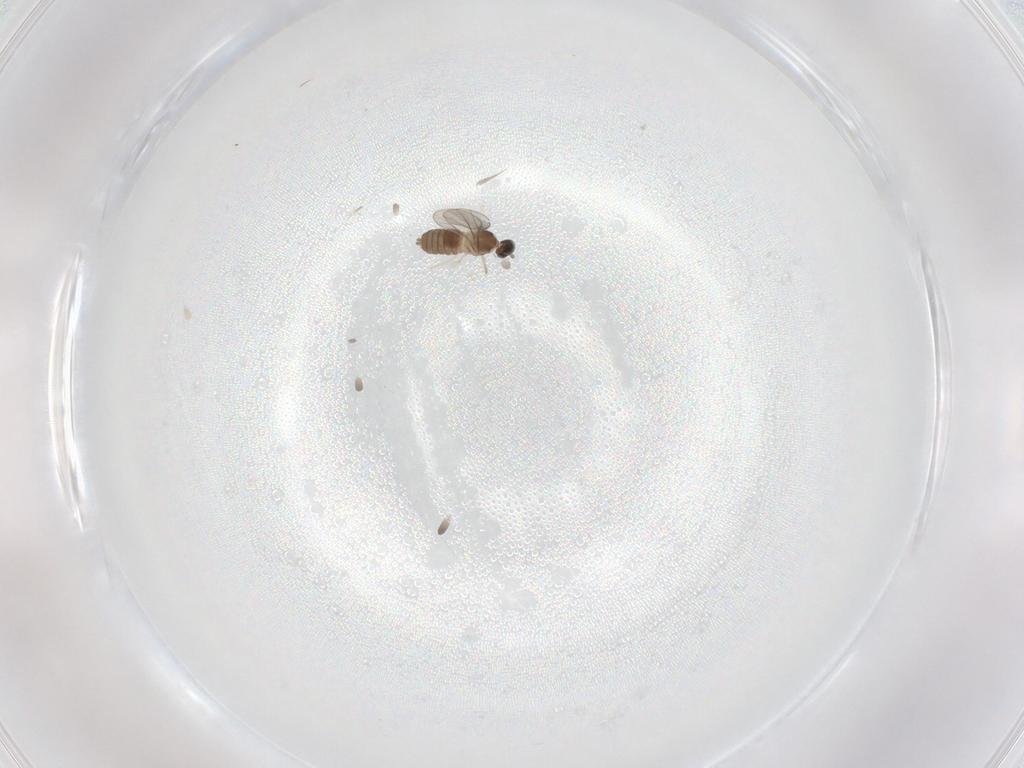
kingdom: Animalia
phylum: Arthropoda
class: Insecta
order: Diptera
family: Cecidomyiidae
